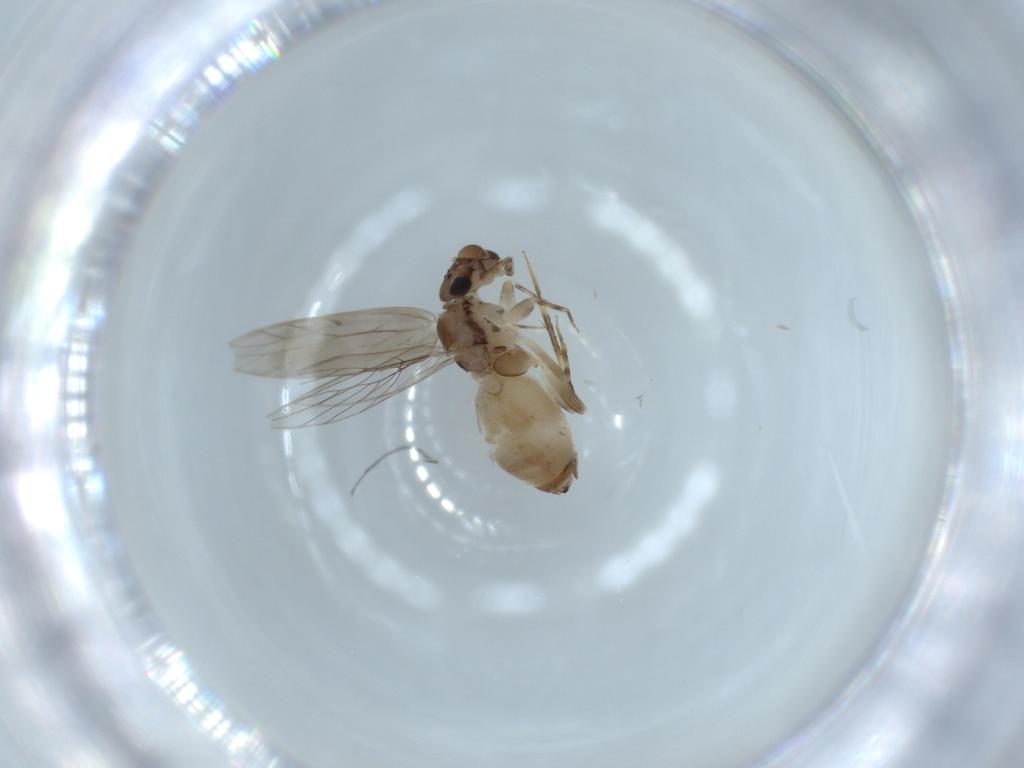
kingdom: Animalia
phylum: Arthropoda
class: Insecta
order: Psocodea
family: Lepidopsocidae
